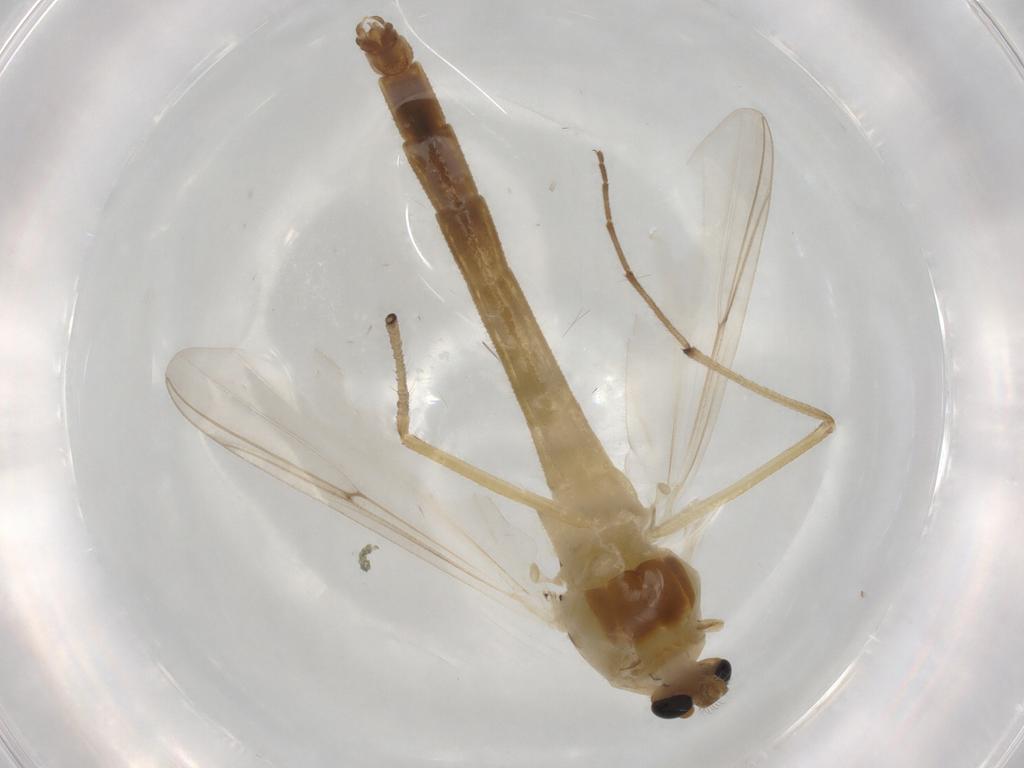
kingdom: Animalia
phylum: Arthropoda
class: Insecta
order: Diptera
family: Chironomidae
